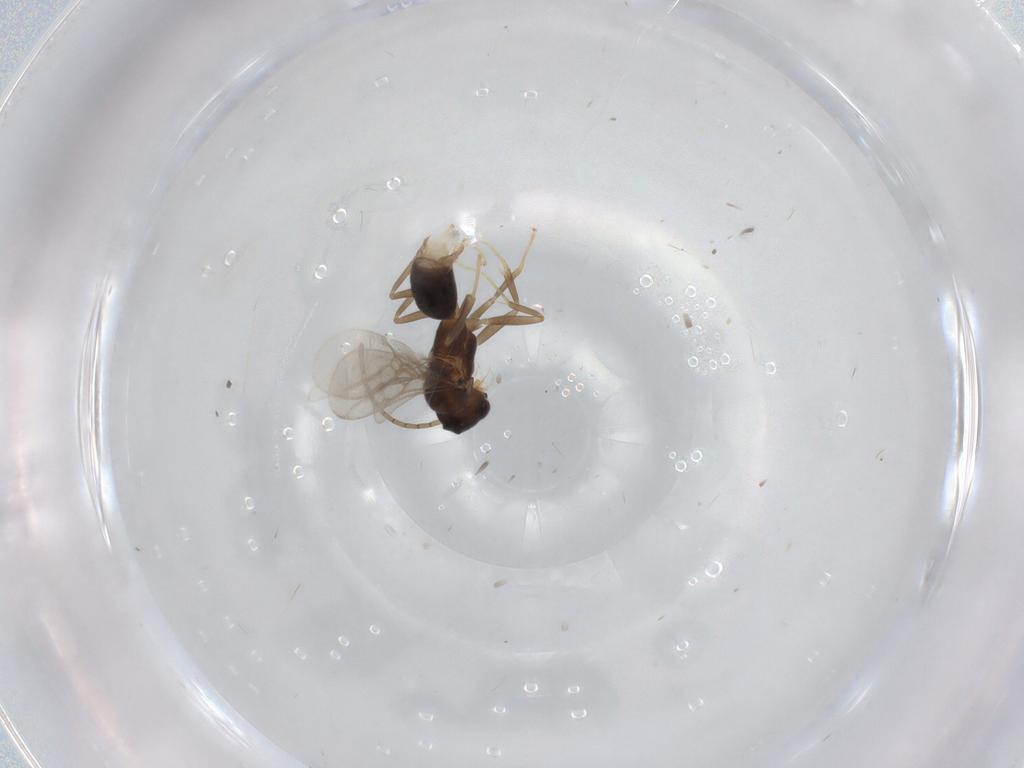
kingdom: Animalia
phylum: Arthropoda
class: Insecta
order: Hymenoptera
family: Formicidae
